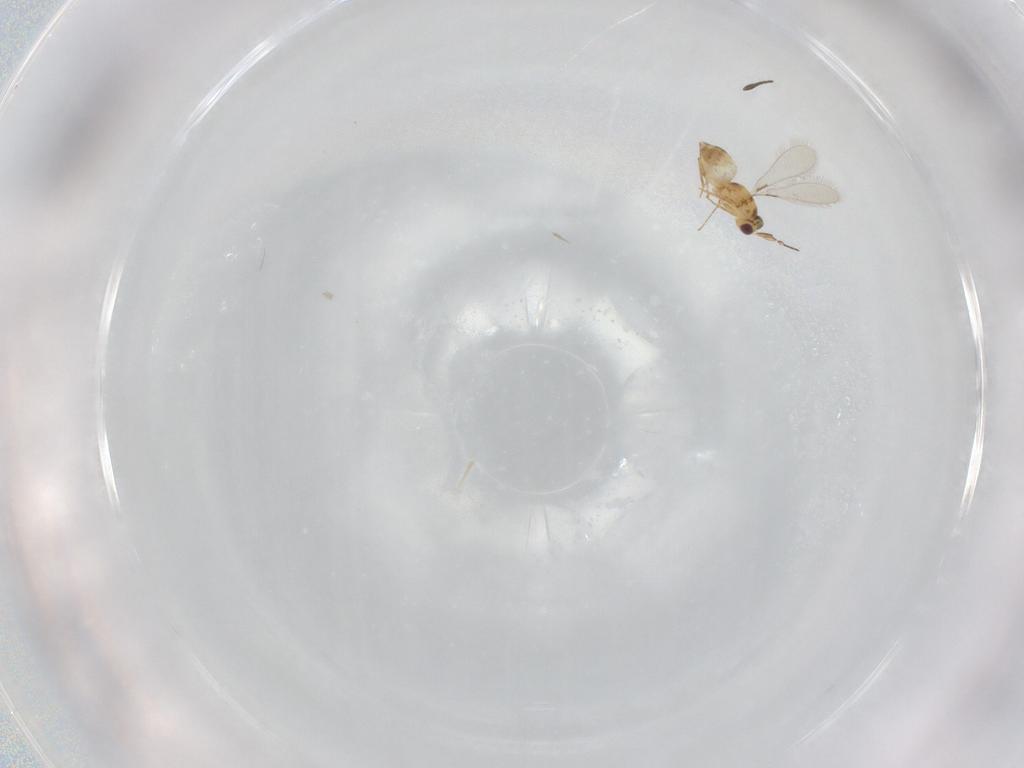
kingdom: Animalia
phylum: Arthropoda
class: Insecta
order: Hymenoptera
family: Mymaridae
